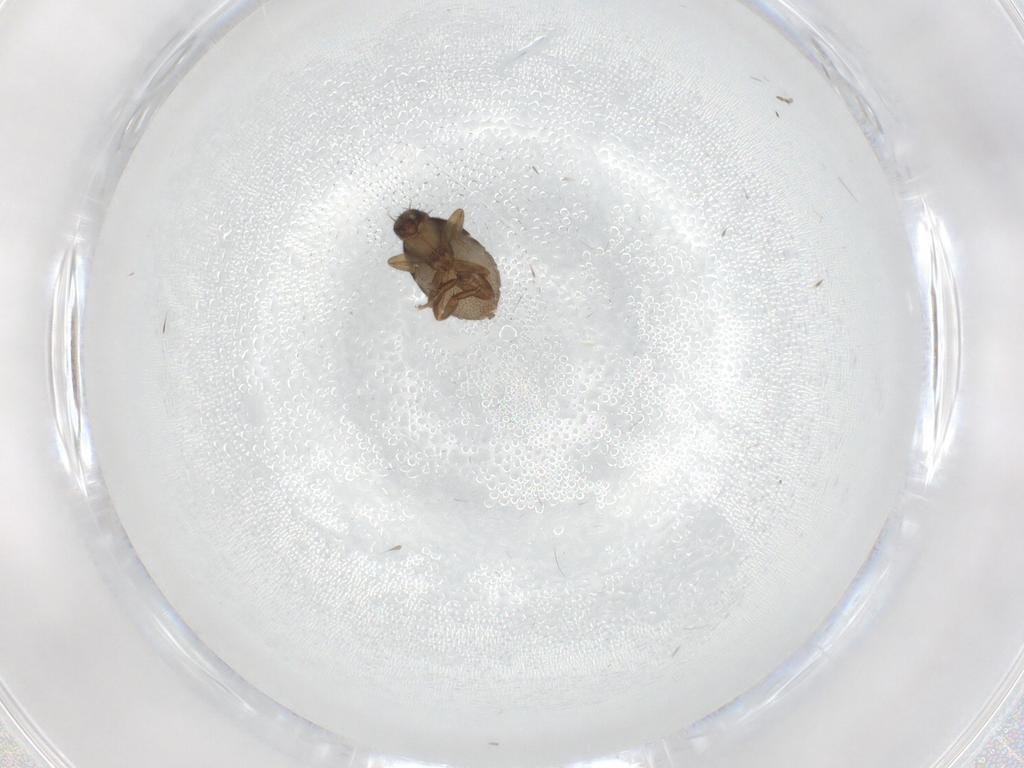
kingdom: Animalia
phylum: Arthropoda
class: Insecta
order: Diptera
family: Phoridae
